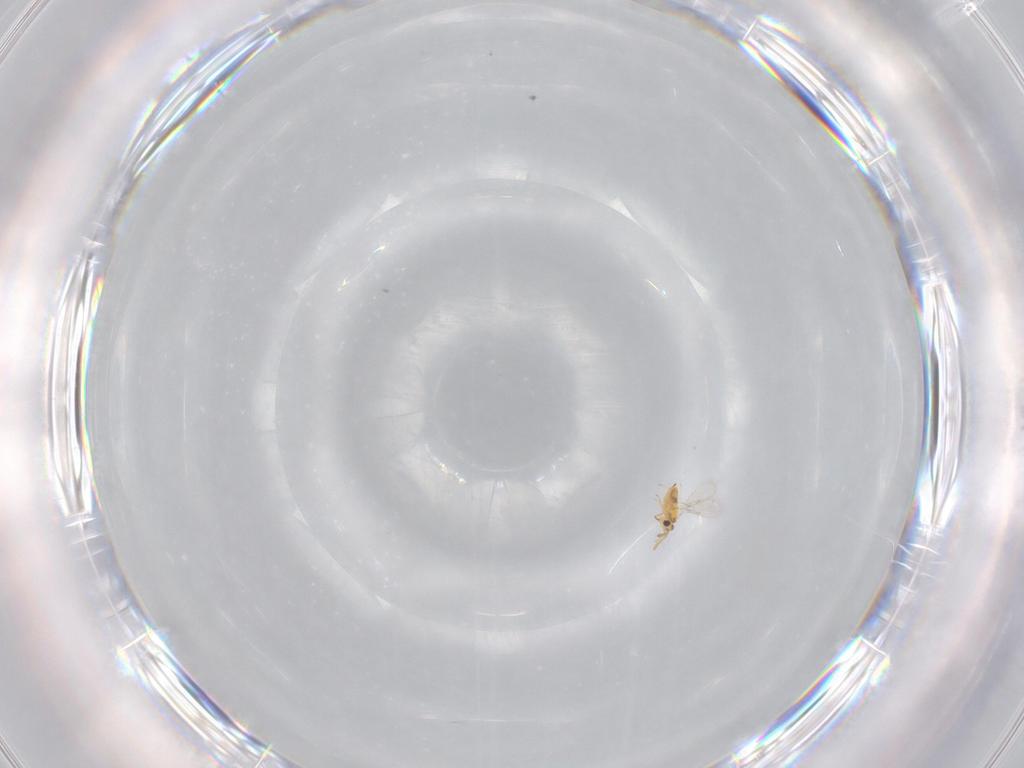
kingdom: Animalia
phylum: Arthropoda
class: Insecta
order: Hymenoptera
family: Aphelinidae
